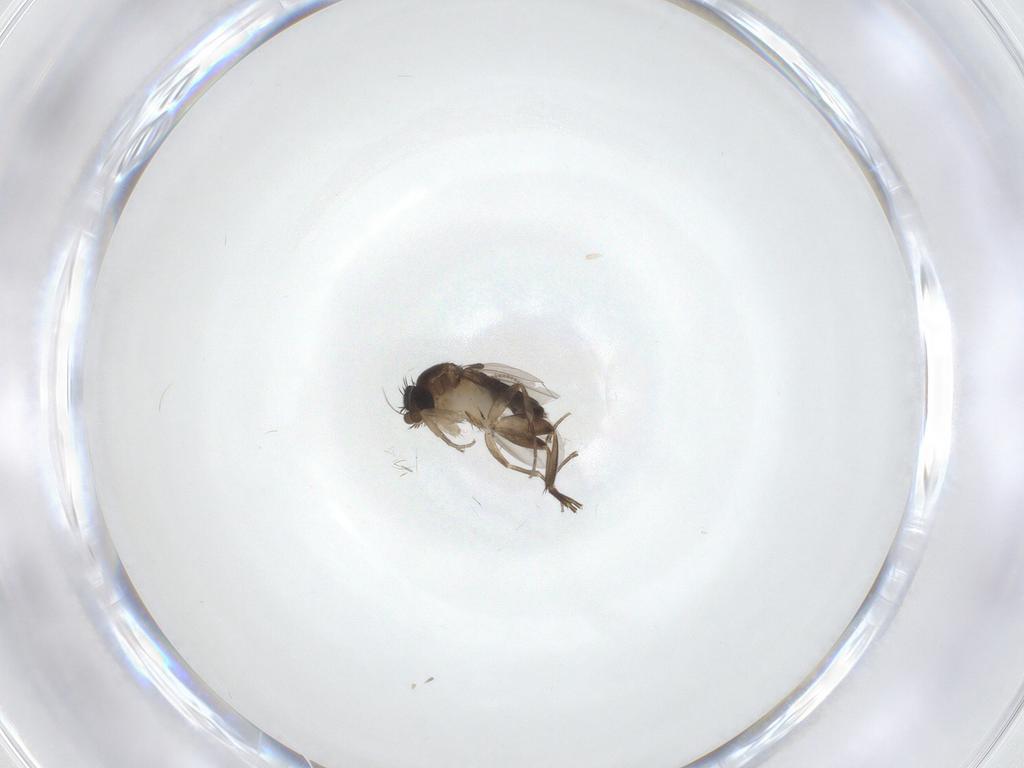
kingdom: Animalia
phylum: Arthropoda
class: Insecta
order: Diptera
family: Phoridae
